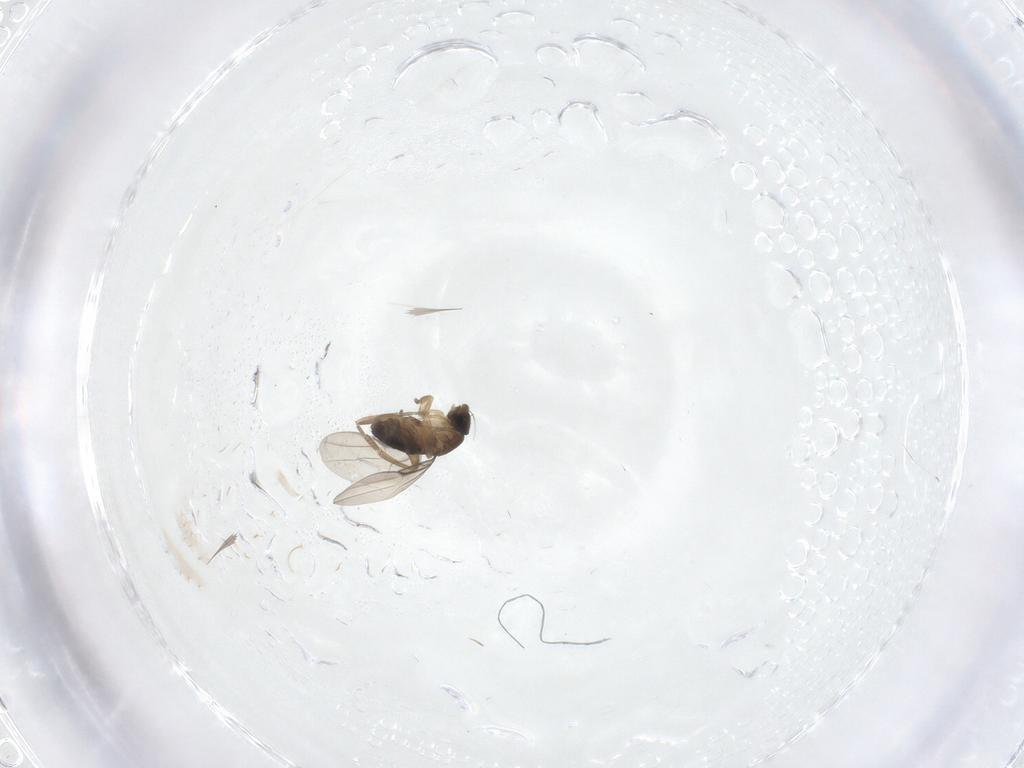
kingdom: Animalia
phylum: Arthropoda
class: Insecta
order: Diptera
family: Phoridae
